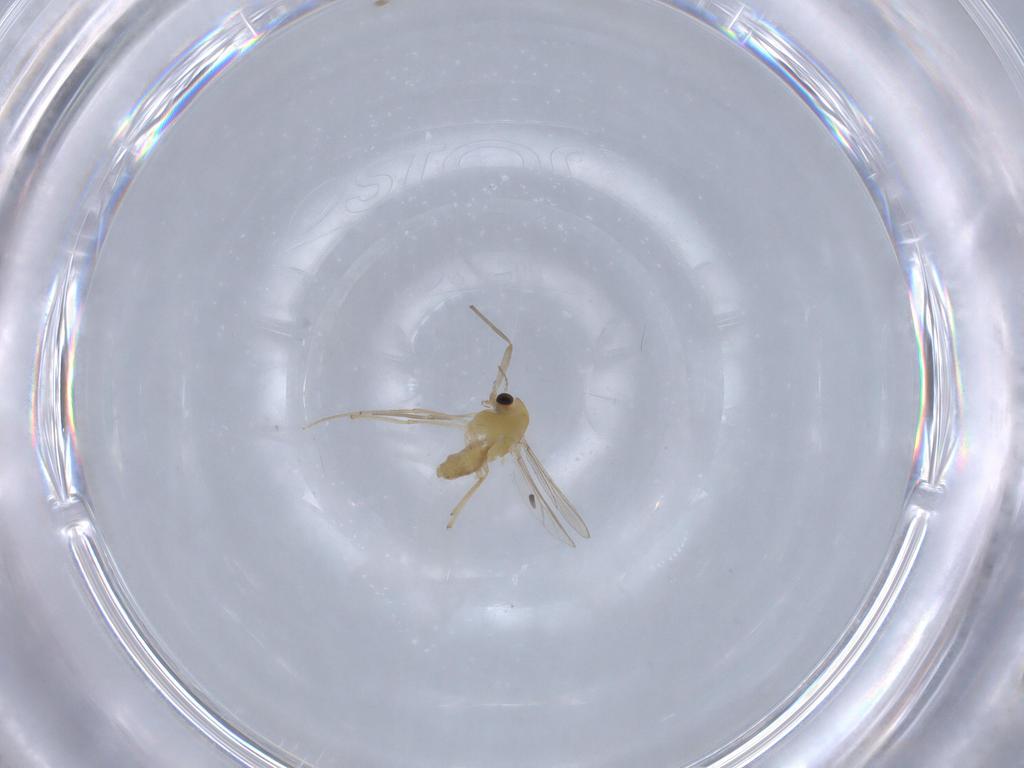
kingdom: Animalia
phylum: Arthropoda
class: Insecta
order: Diptera
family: Chironomidae
